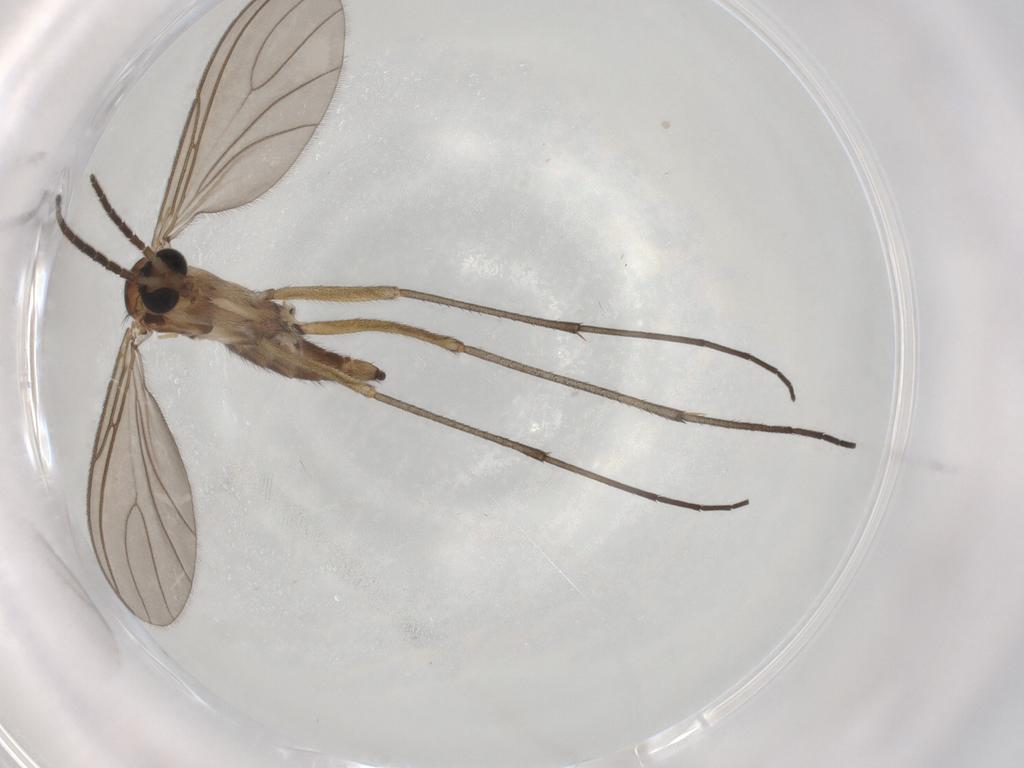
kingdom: Animalia
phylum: Arthropoda
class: Insecta
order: Diptera
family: Sciaridae
